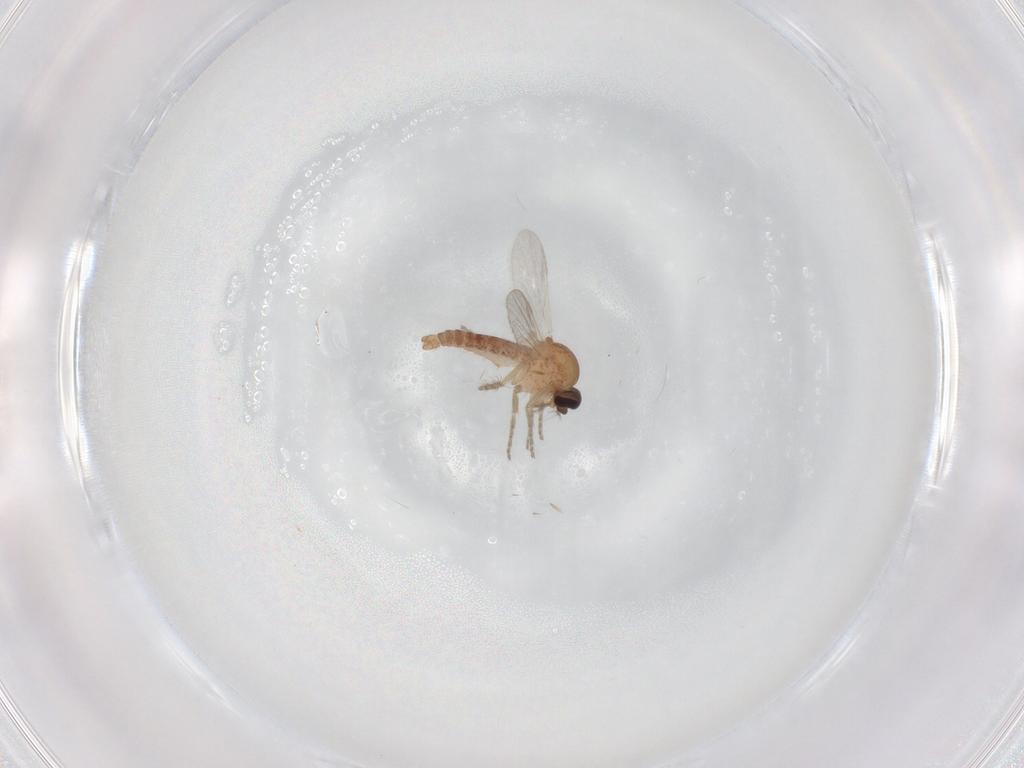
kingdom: Animalia
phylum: Arthropoda
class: Insecta
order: Diptera
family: Ceratopogonidae
